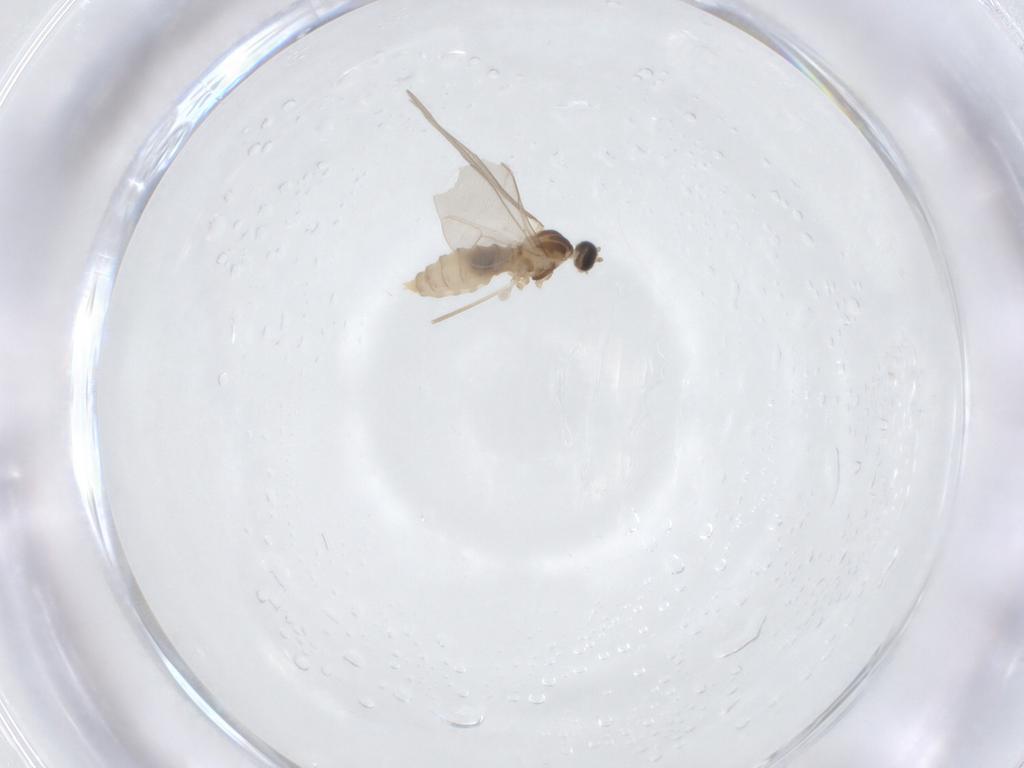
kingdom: Animalia
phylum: Arthropoda
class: Insecta
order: Diptera
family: Cecidomyiidae
